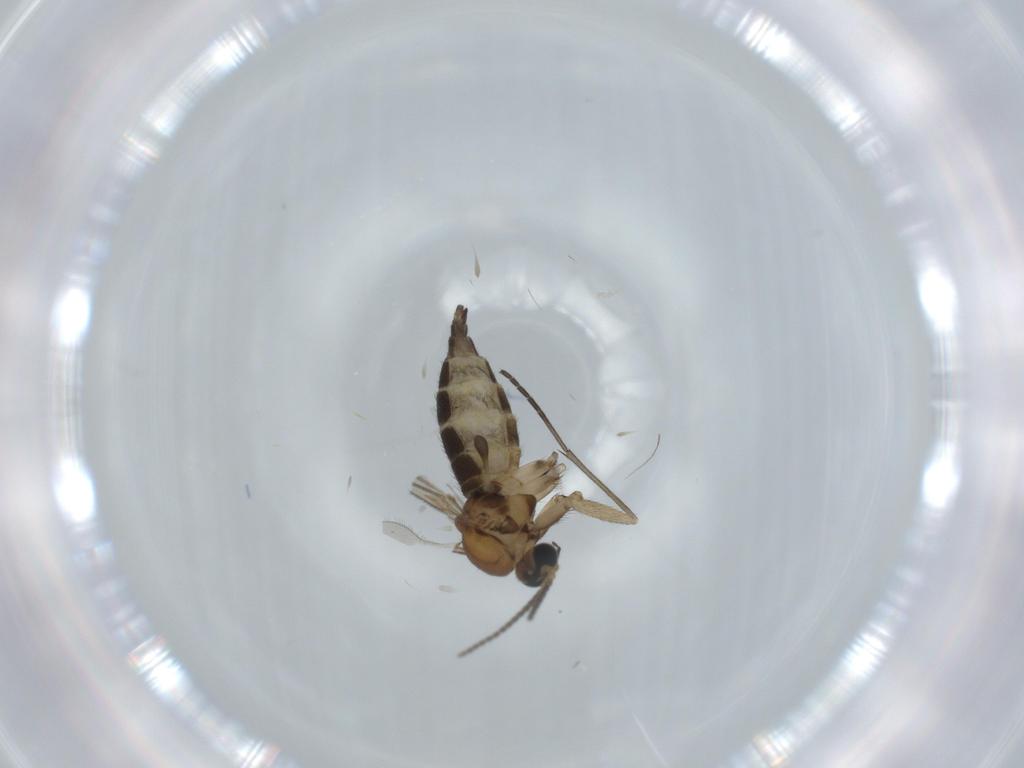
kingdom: Animalia
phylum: Arthropoda
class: Insecta
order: Diptera
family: Sciaridae
